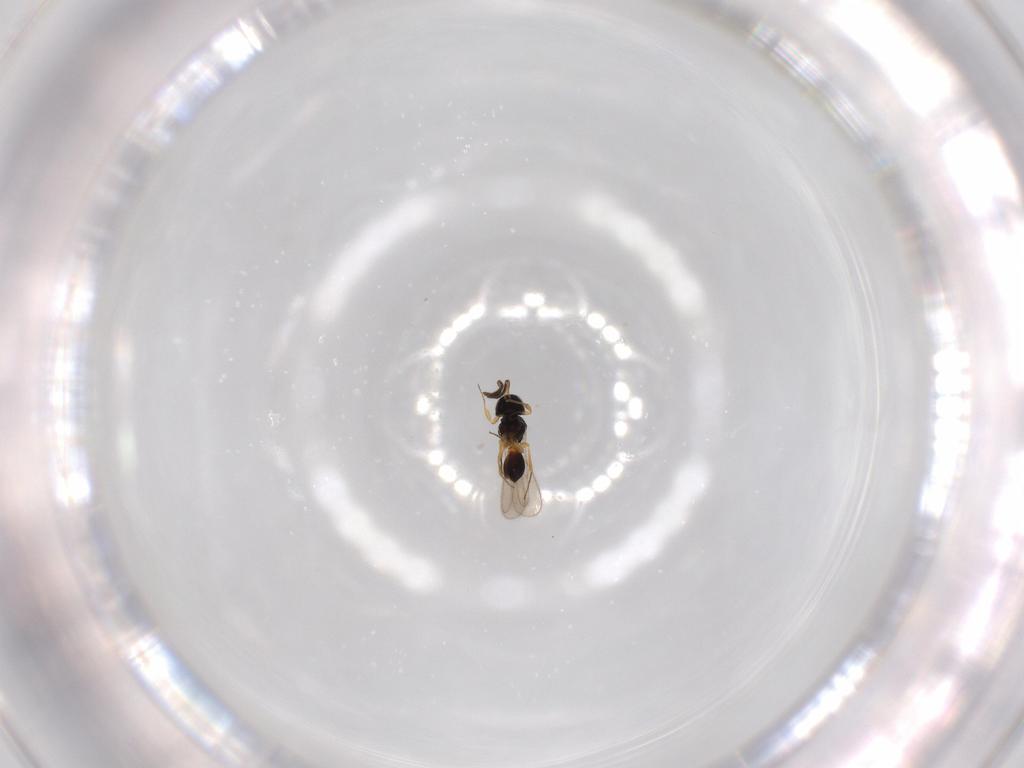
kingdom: Animalia
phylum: Arthropoda
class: Insecta
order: Hymenoptera
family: Scelionidae
